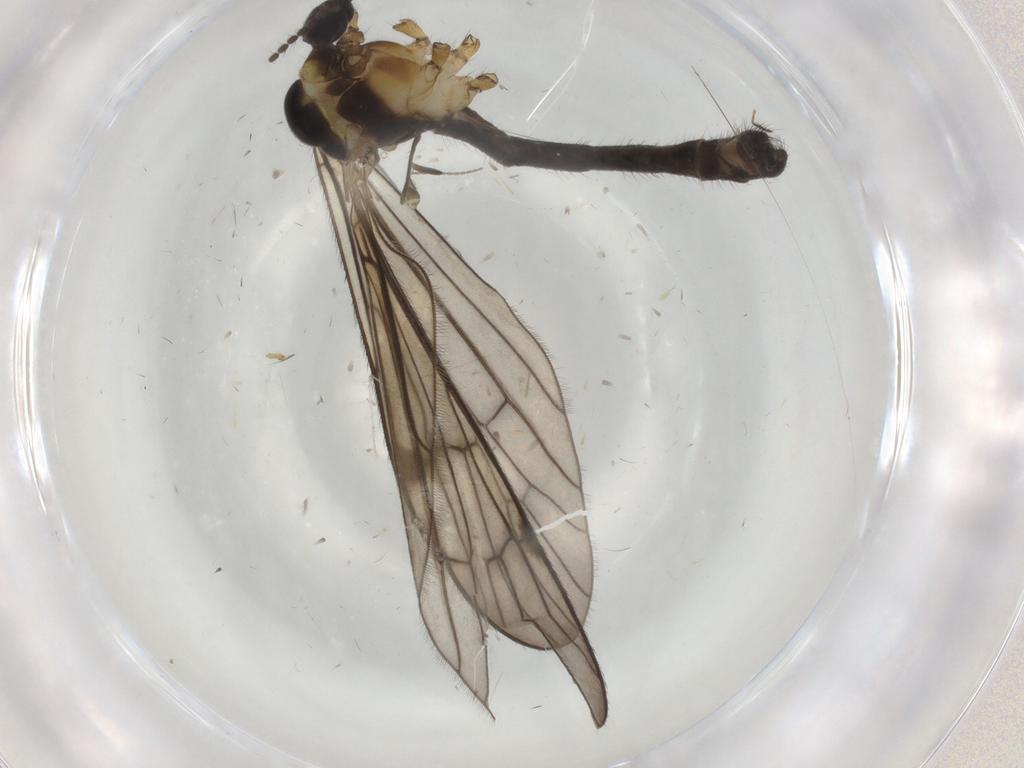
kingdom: Animalia
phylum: Arthropoda
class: Insecta
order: Diptera
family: Limoniidae
